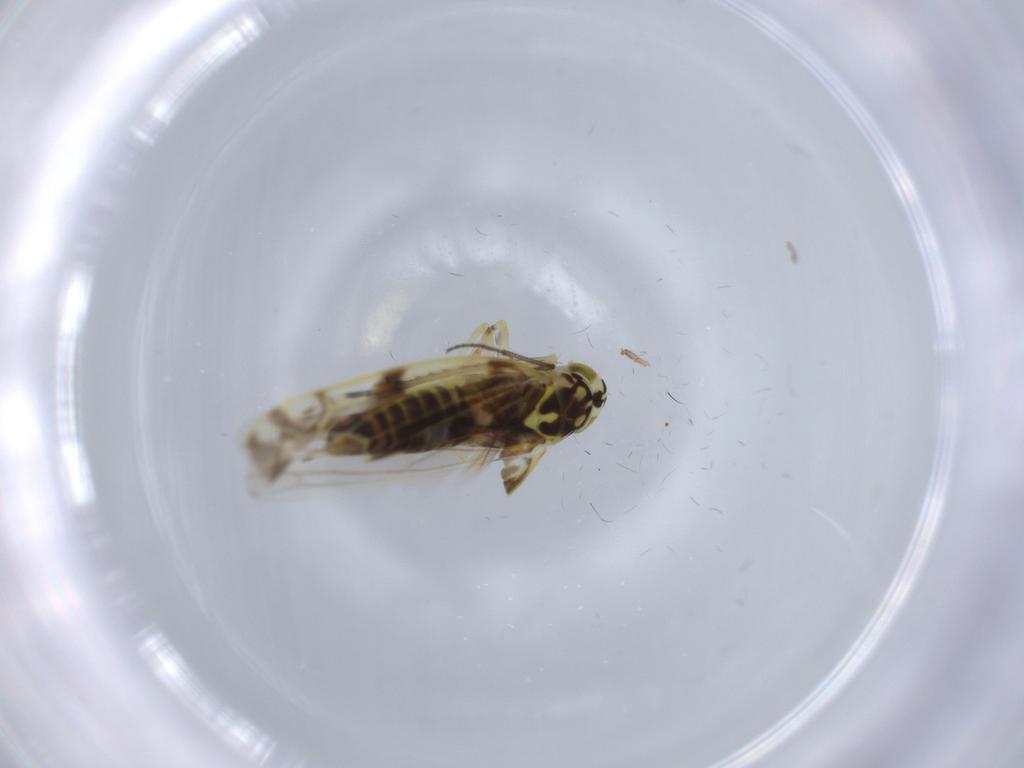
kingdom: Animalia
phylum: Arthropoda
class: Insecta
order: Hemiptera
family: Cicadellidae
